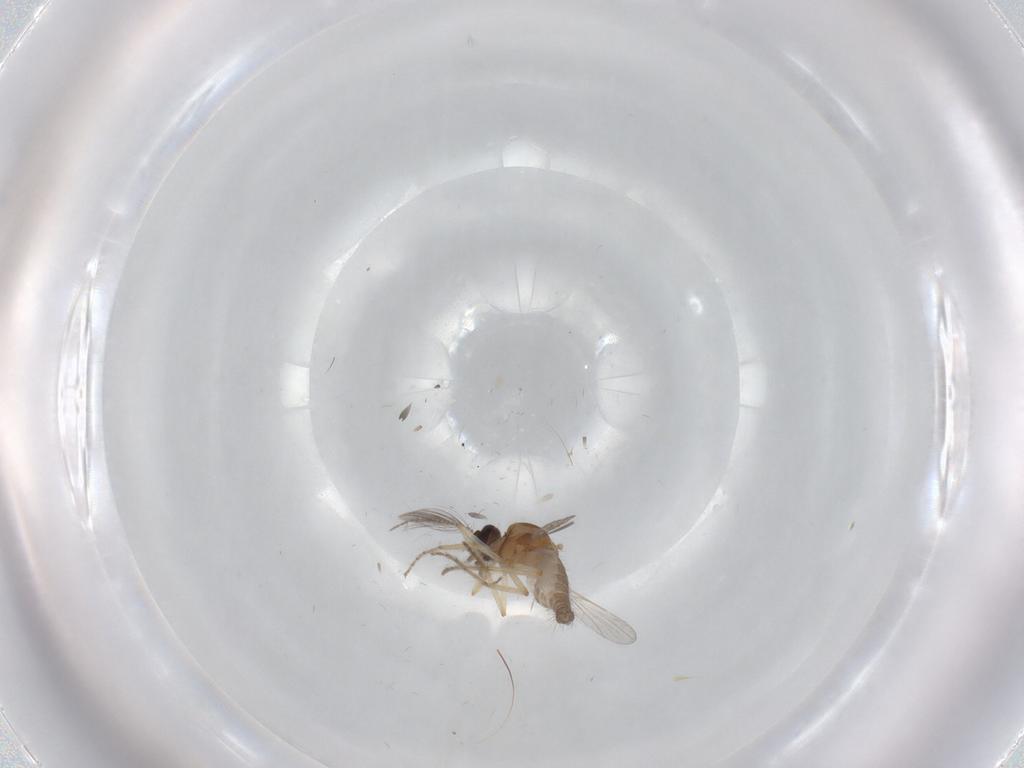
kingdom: Animalia
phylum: Arthropoda
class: Insecta
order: Diptera
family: Ceratopogonidae
